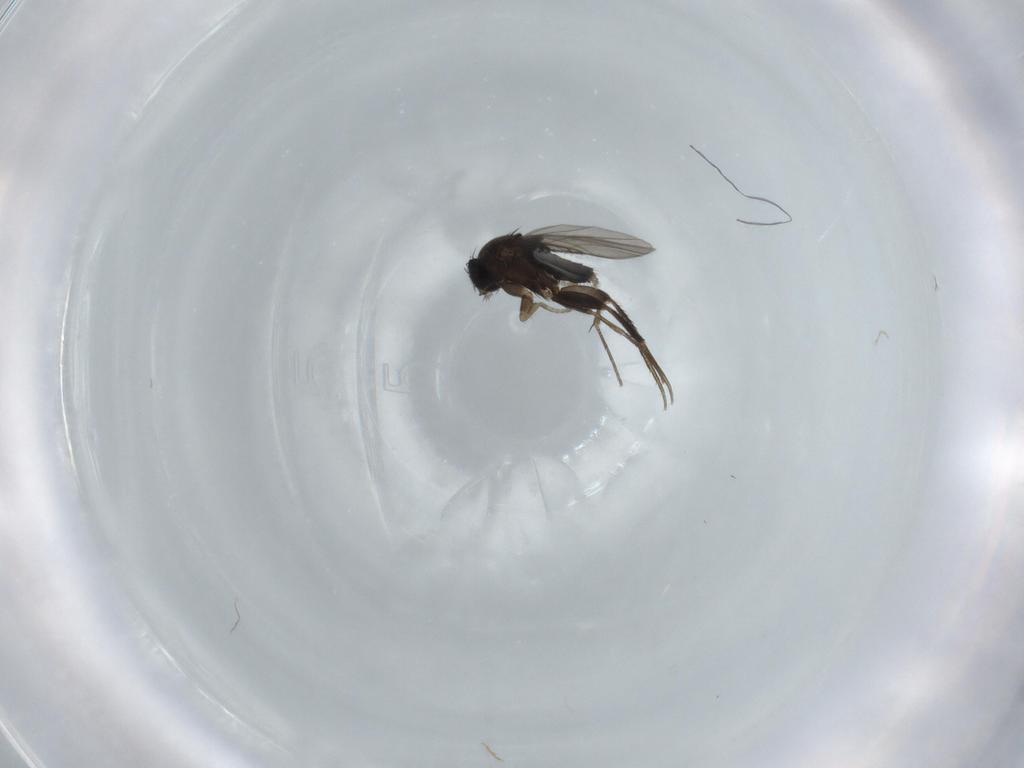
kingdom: Animalia
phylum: Arthropoda
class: Insecta
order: Diptera
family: Phoridae
